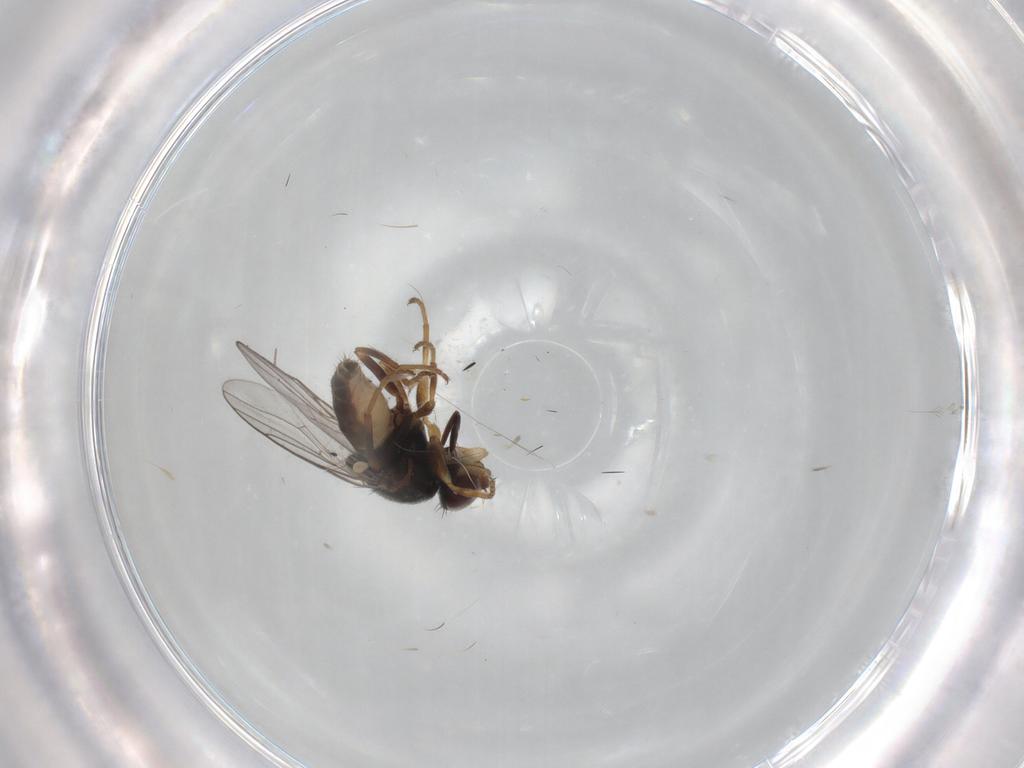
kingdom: Animalia
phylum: Arthropoda
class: Insecta
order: Diptera
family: Chloropidae
